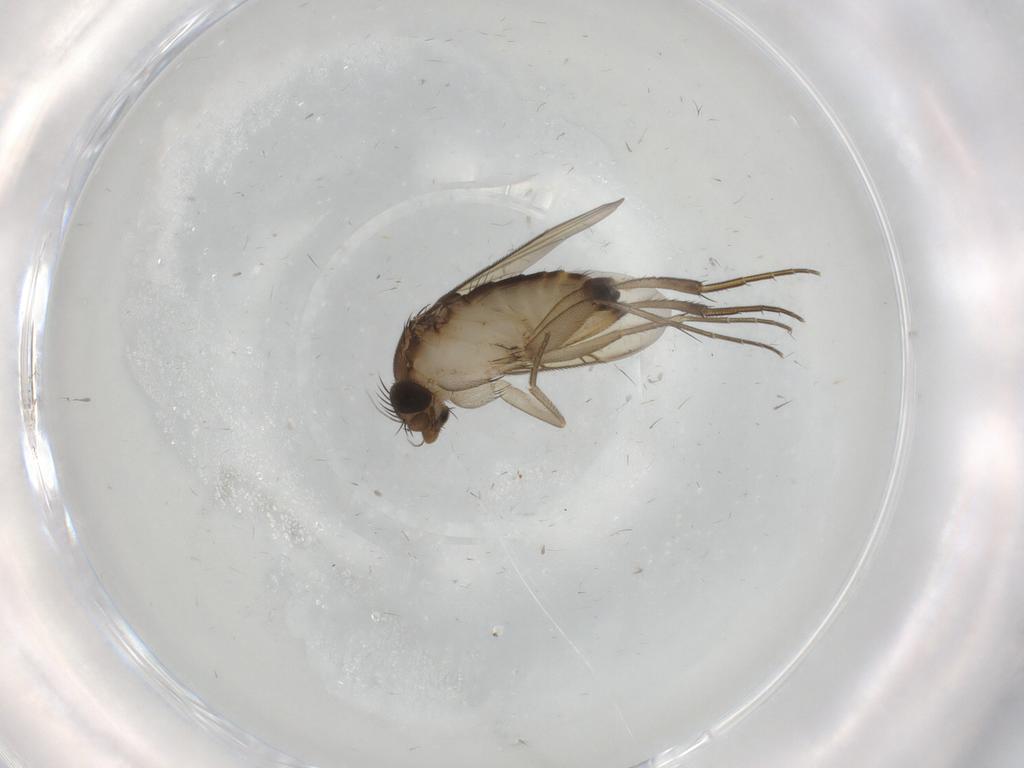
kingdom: Animalia
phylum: Arthropoda
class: Insecta
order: Diptera
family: Phoridae
